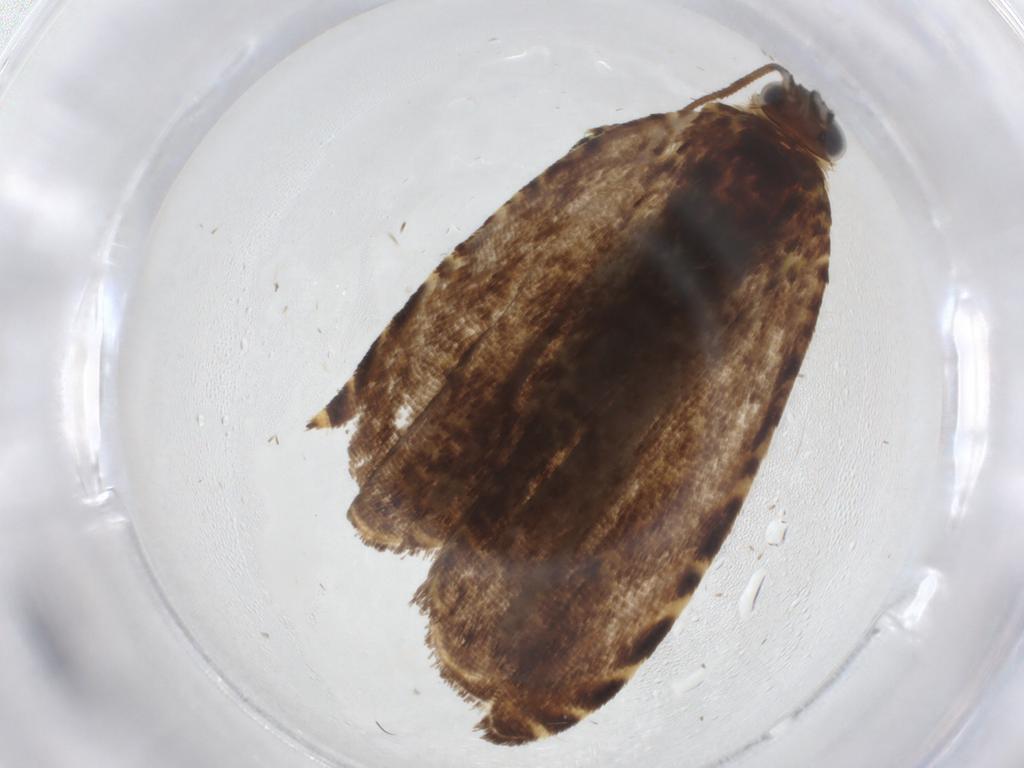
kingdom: Animalia
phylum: Arthropoda
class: Insecta
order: Lepidoptera
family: Tortricidae
